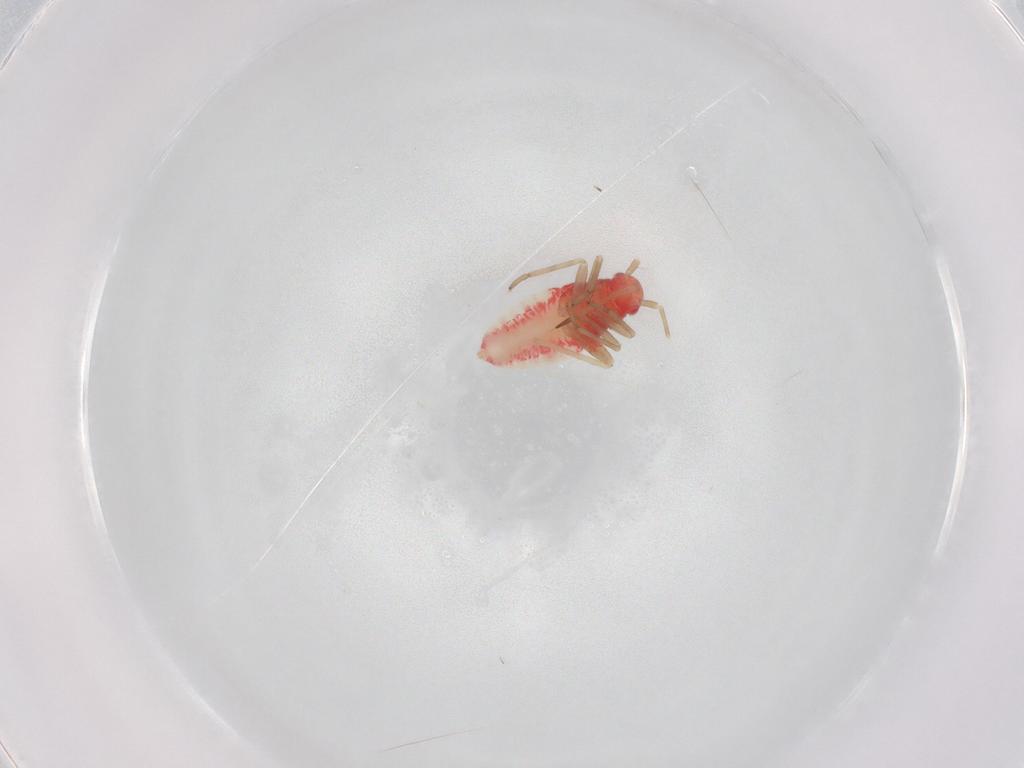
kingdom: Animalia
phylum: Arthropoda
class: Insecta
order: Hemiptera
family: Miridae
